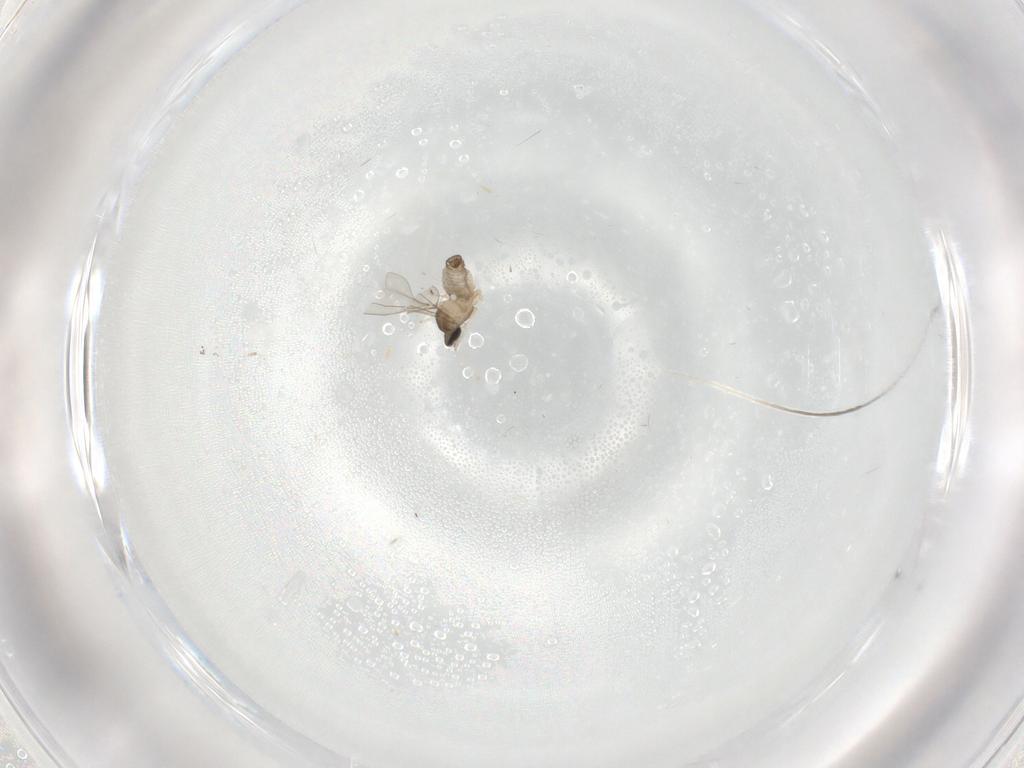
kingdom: Animalia
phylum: Arthropoda
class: Insecta
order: Diptera
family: Cecidomyiidae
